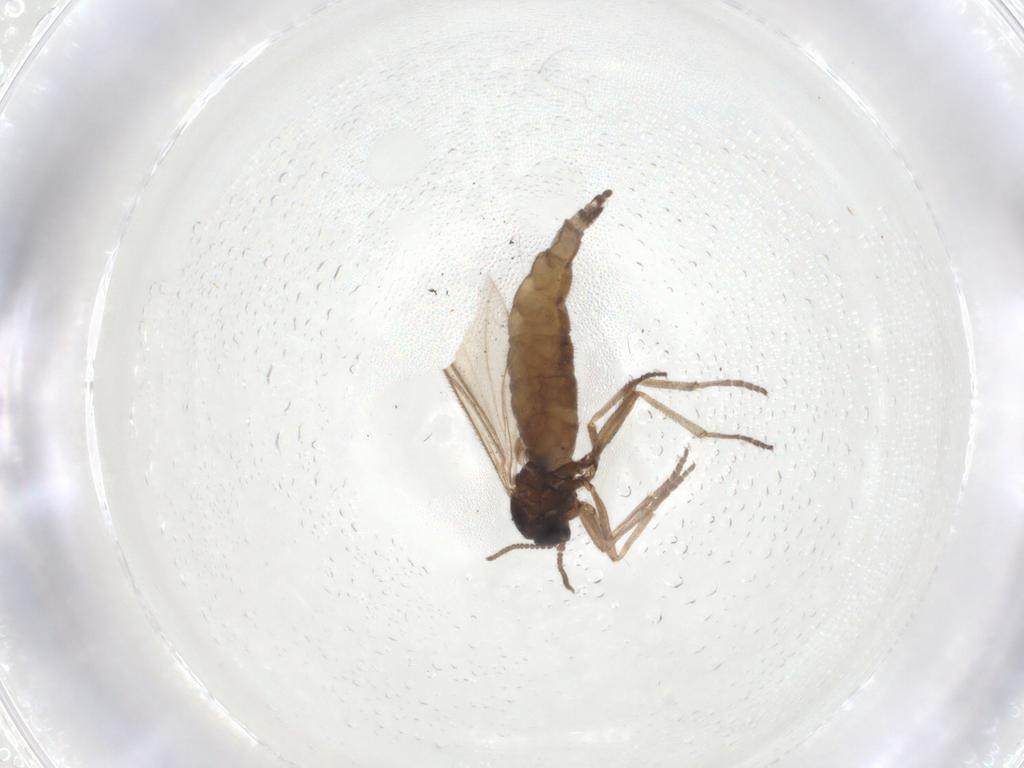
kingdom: Animalia
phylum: Arthropoda
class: Insecta
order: Diptera
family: Sciaridae
